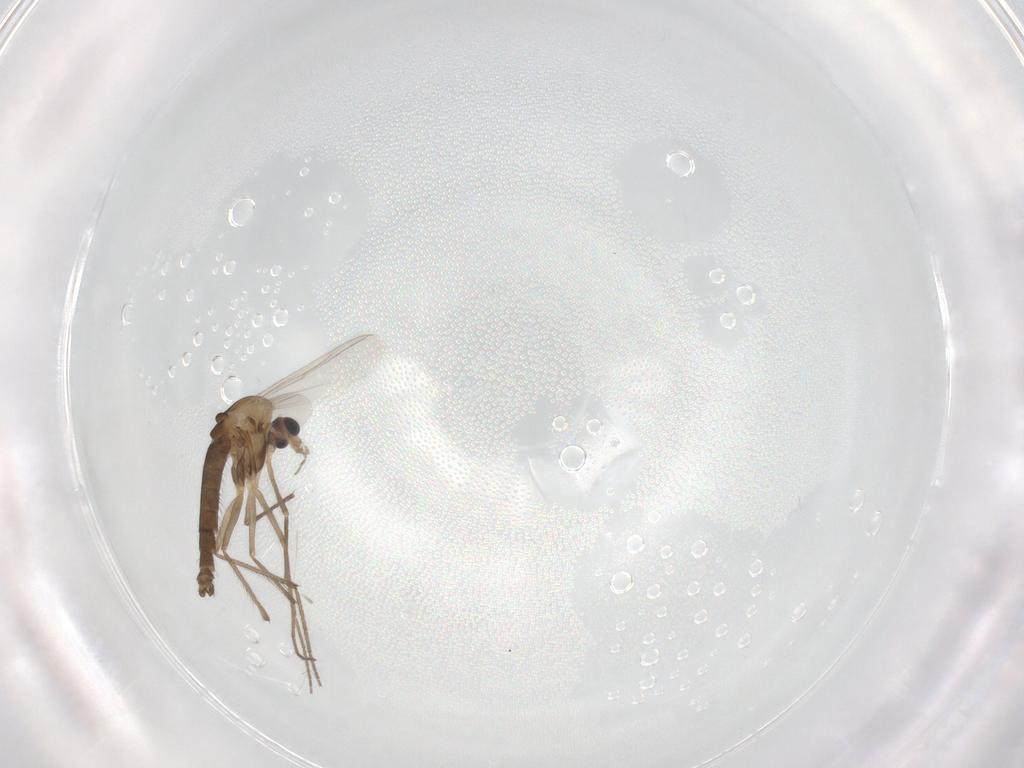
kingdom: Animalia
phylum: Arthropoda
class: Insecta
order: Diptera
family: Chironomidae
